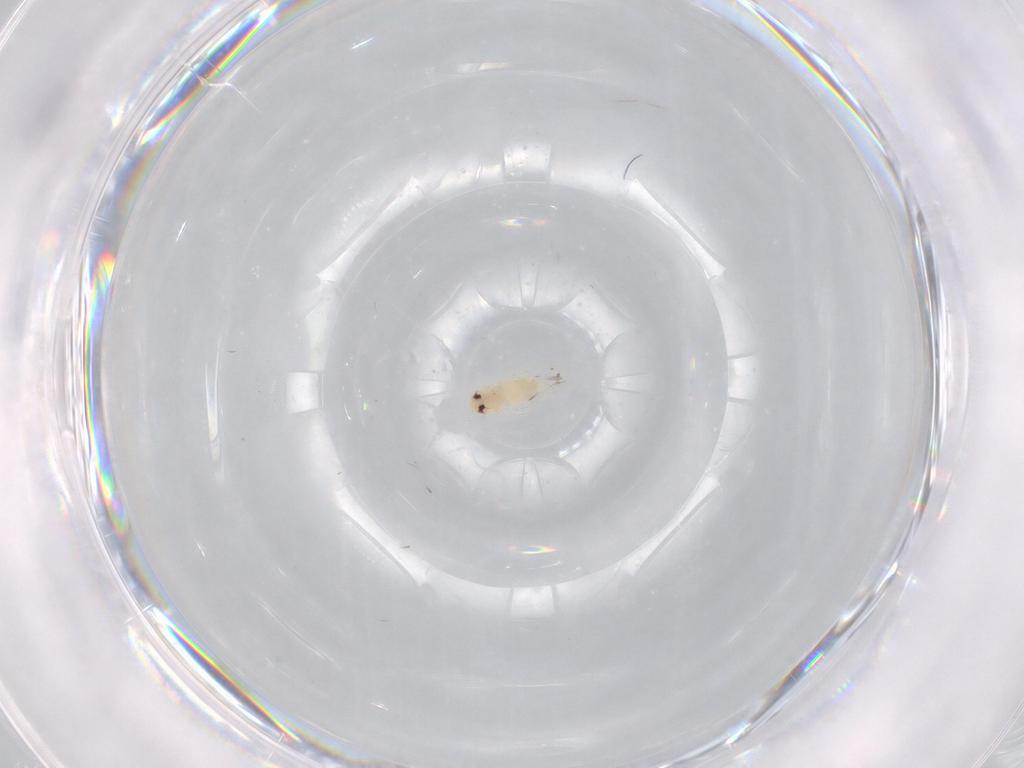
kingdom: Animalia
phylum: Arthropoda
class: Insecta
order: Hemiptera
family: Aleyrodidae
